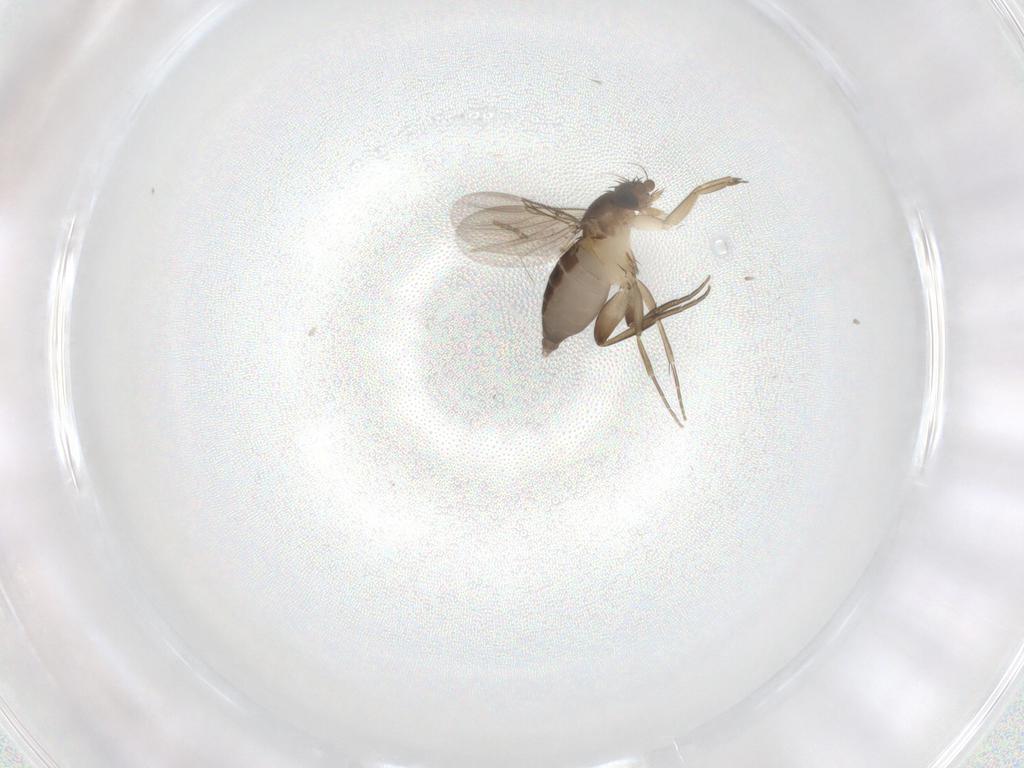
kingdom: Animalia
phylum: Arthropoda
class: Insecta
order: Diptera
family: Phoridae
